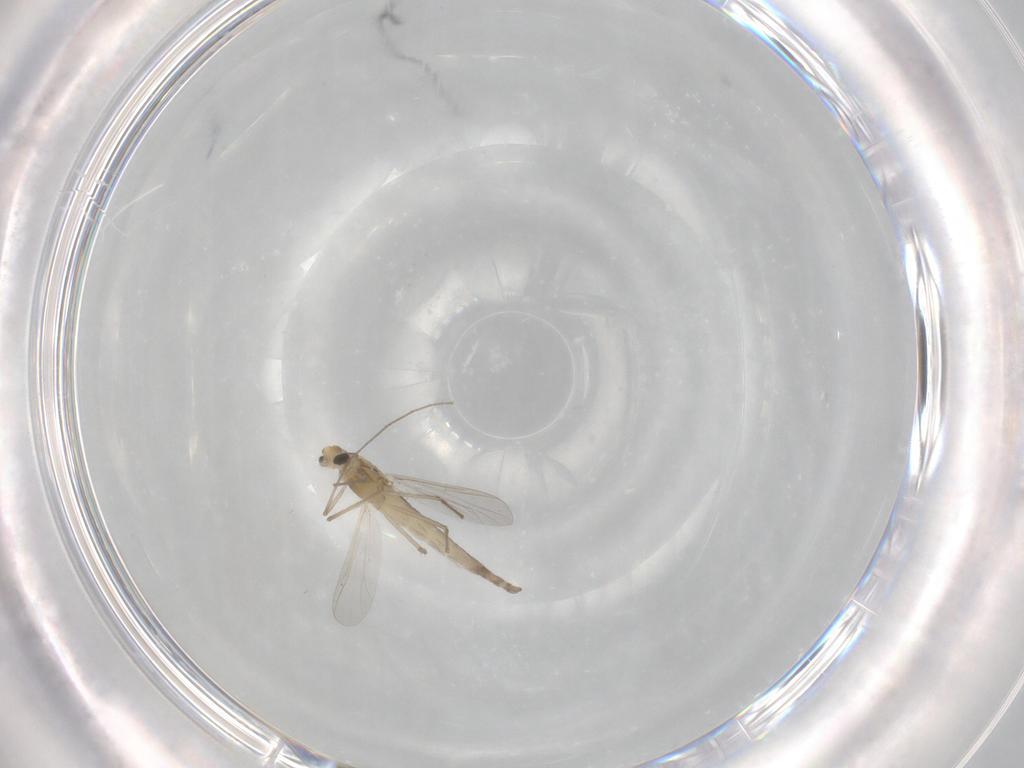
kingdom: Animalia
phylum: Arthropoda
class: Insecta
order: Diptera
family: Chironomidae
